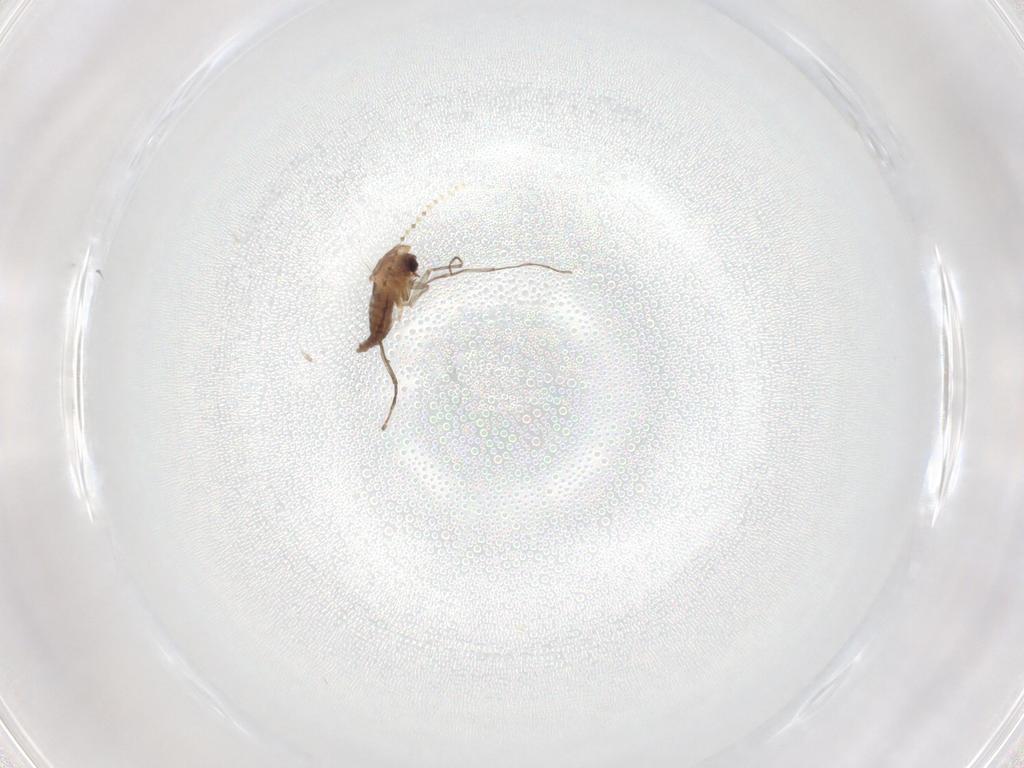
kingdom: Animalia
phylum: Arthropoda
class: Insecta
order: Diptera
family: Chironomidae
